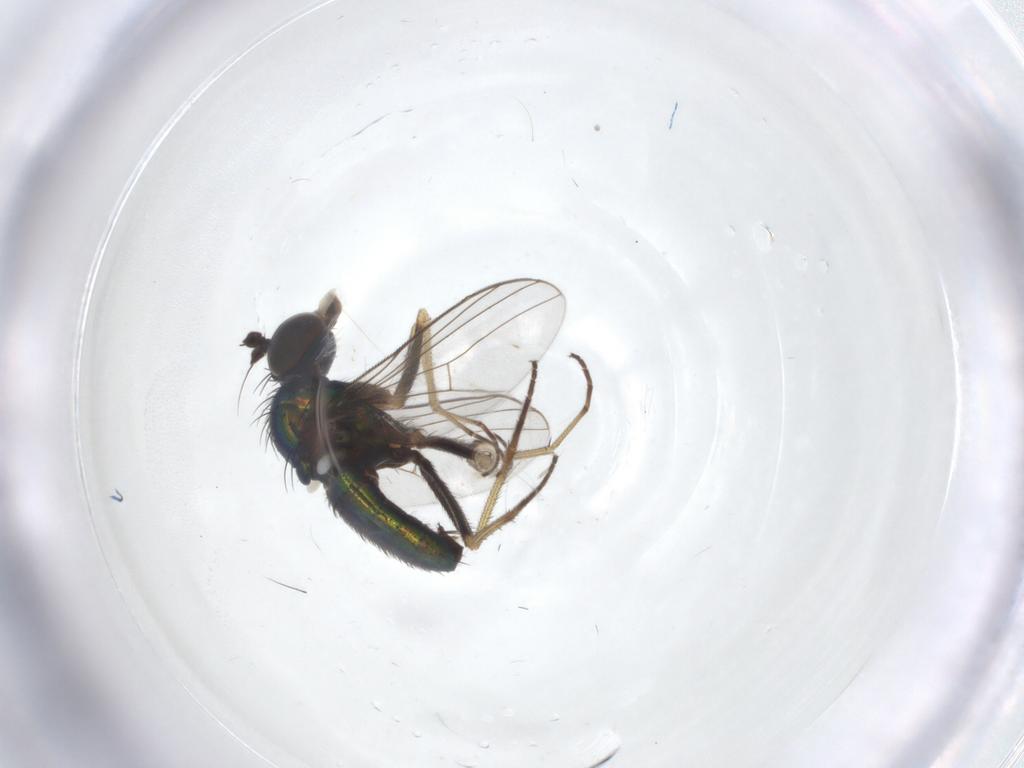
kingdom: Animalia
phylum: Arthropoda
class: Insecta
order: Diptera
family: Dolichopodidae
